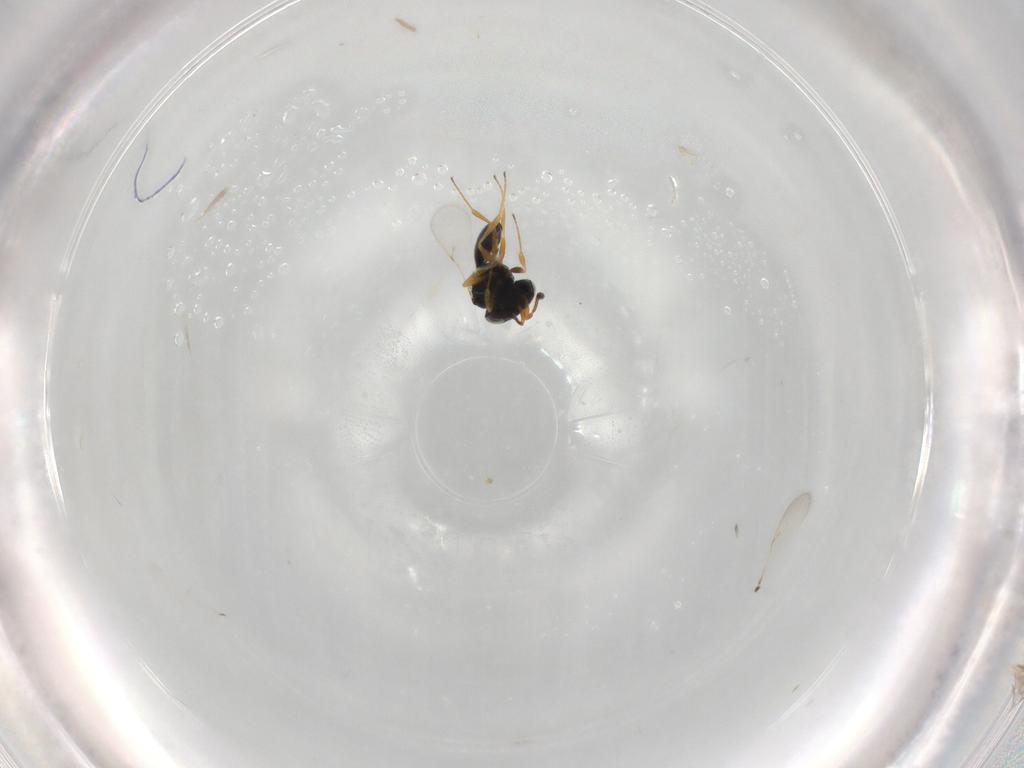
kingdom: Animalia
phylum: Arthropoda
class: Insecta
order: Hymenoptera
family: Scelionidae
